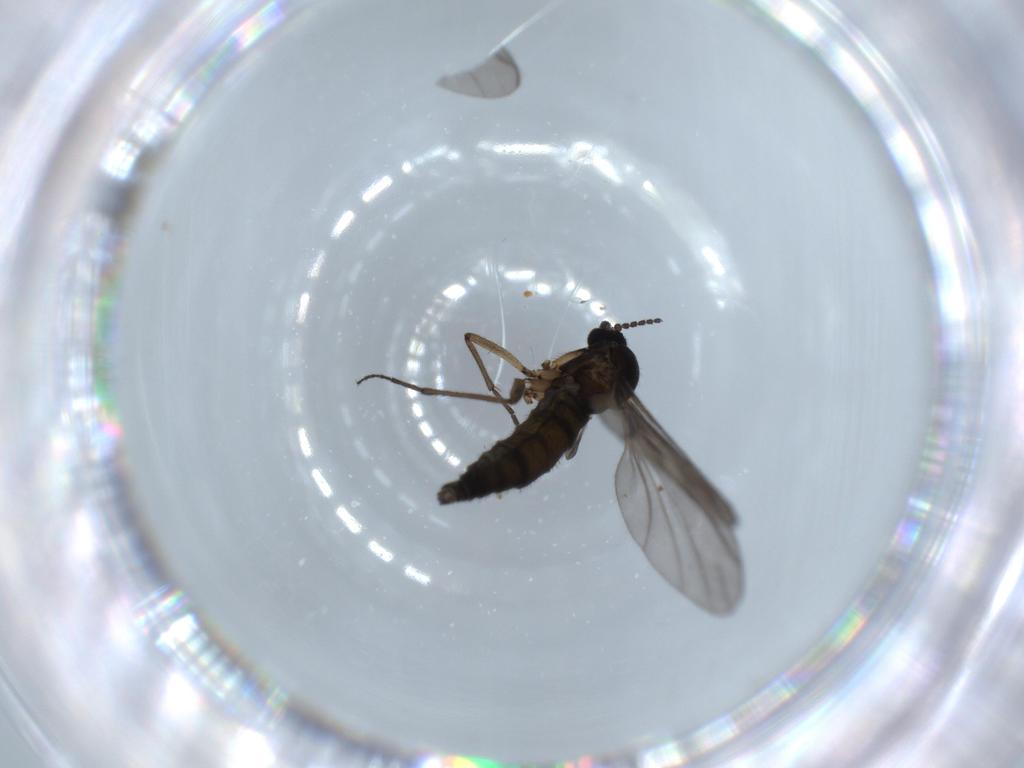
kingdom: Animalia
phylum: Arthropoda
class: Insecta
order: Diptera
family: Sciaridae
